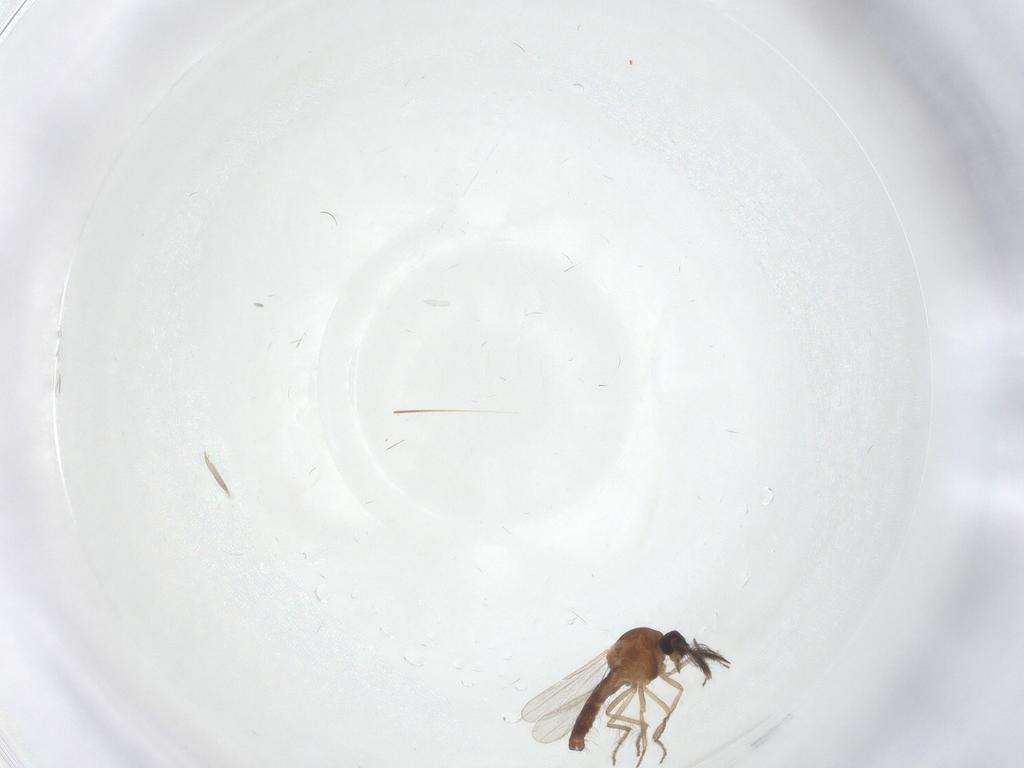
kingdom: Animalia
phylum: Arthropoda
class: Insecta
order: Diptera
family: Ceratopogonidae
